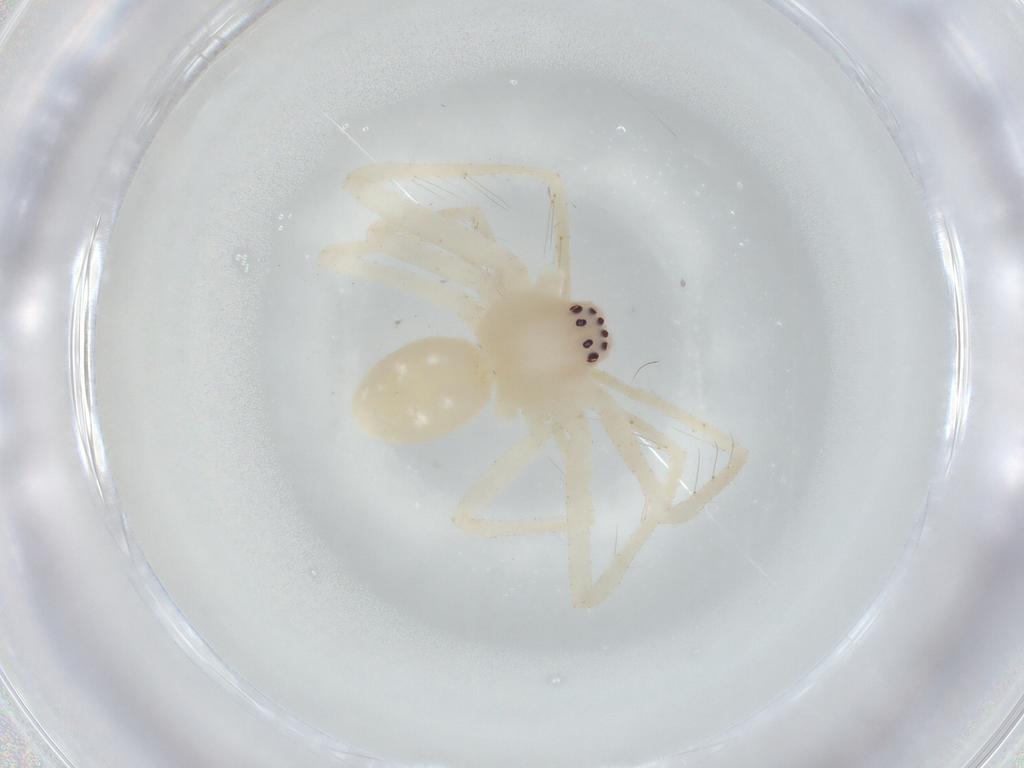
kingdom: Animalia
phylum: Arthropoda
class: Arachnida
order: Araneae
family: Sparassidae
